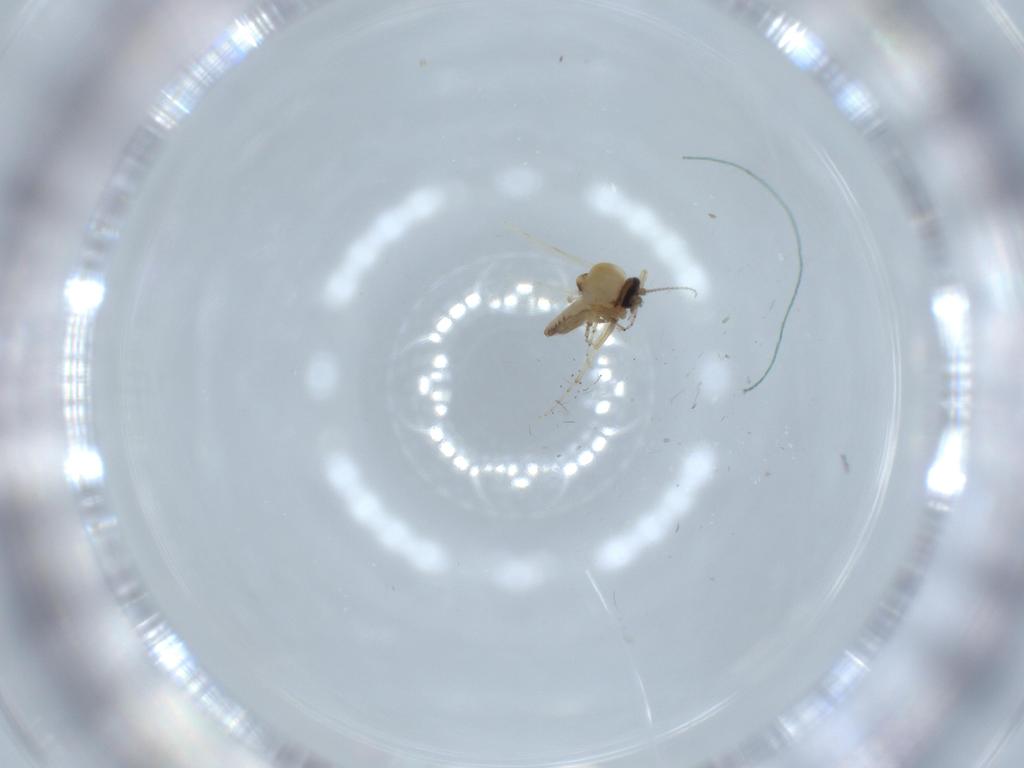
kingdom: Animalia
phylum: Arthropoda
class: Insecta
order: Diptera
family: Ceratopogonidae
